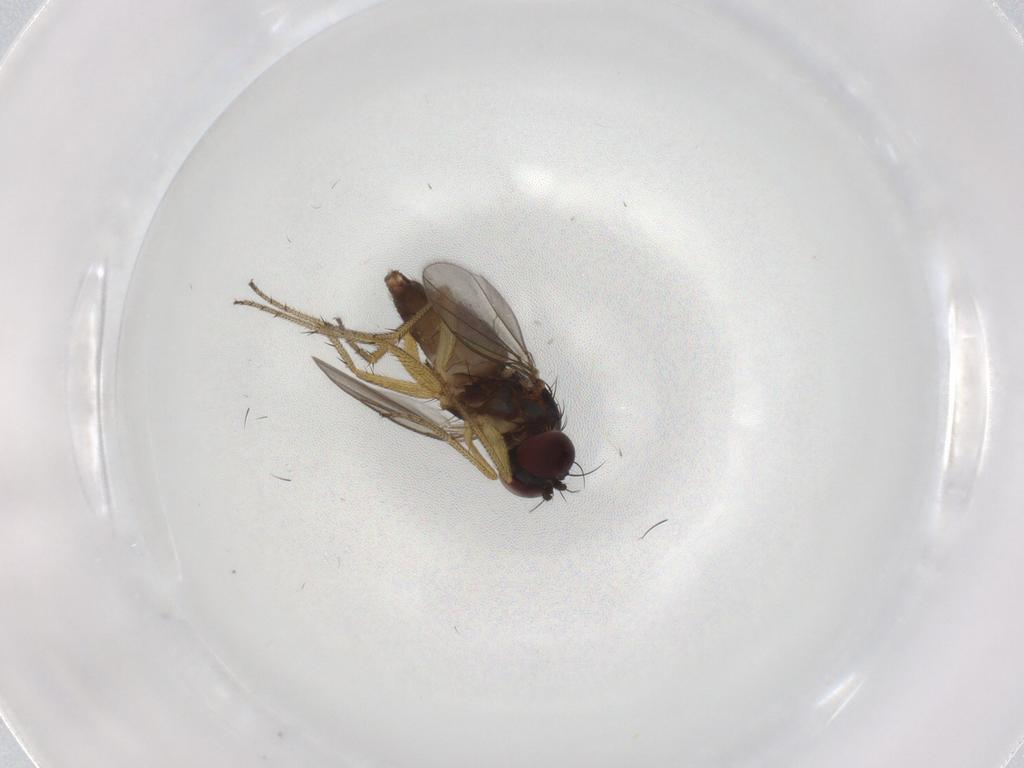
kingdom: Animalia
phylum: Arthropoda
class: Insecta
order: Diptera
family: Dolichopodidae
